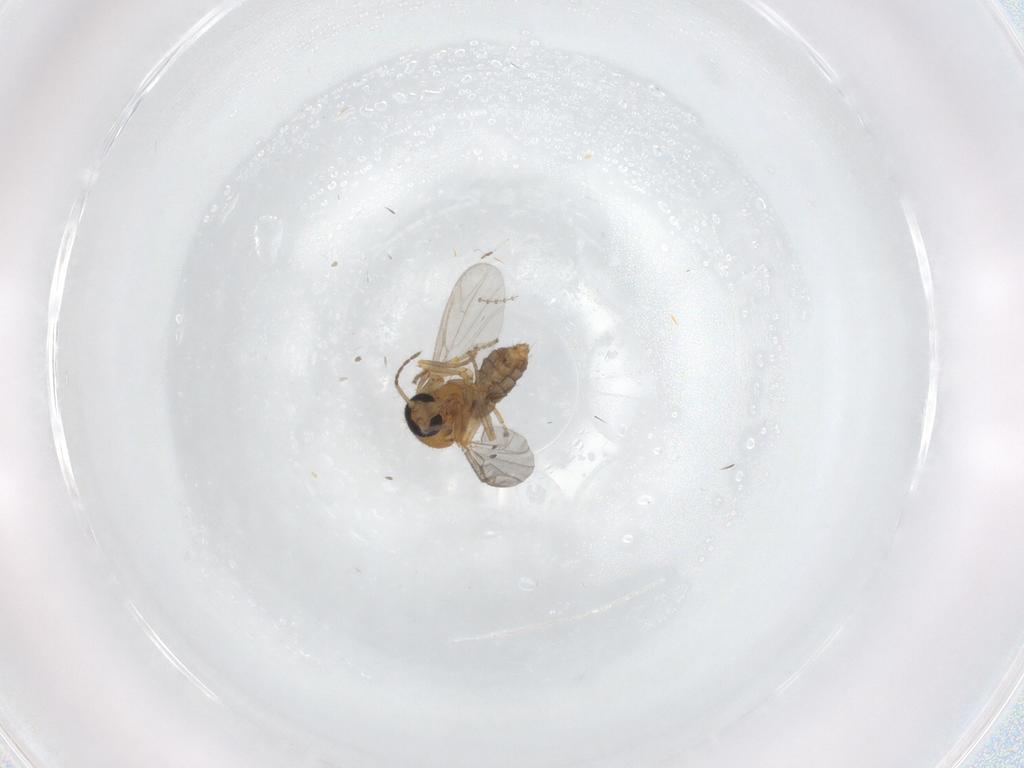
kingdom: Animalia
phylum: Arthropoda
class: Insecta
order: Diptera
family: Ceratopogonidae
